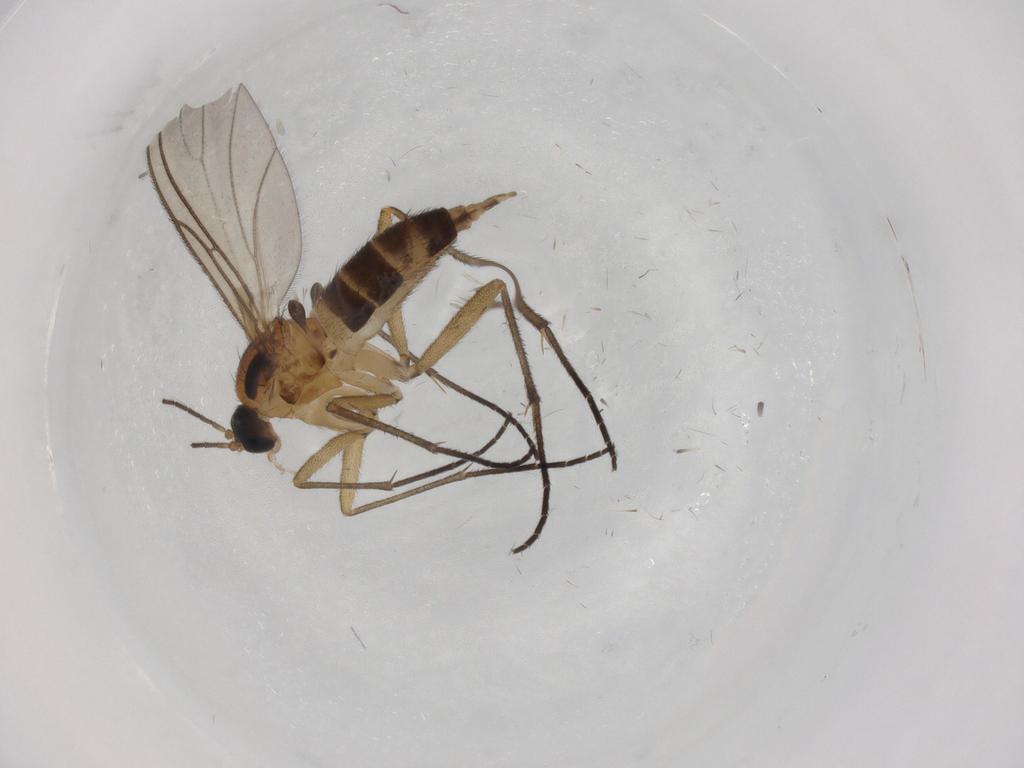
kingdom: Animalia
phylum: Arthropoda
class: Insecta
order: Diptera
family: Sciaridae
